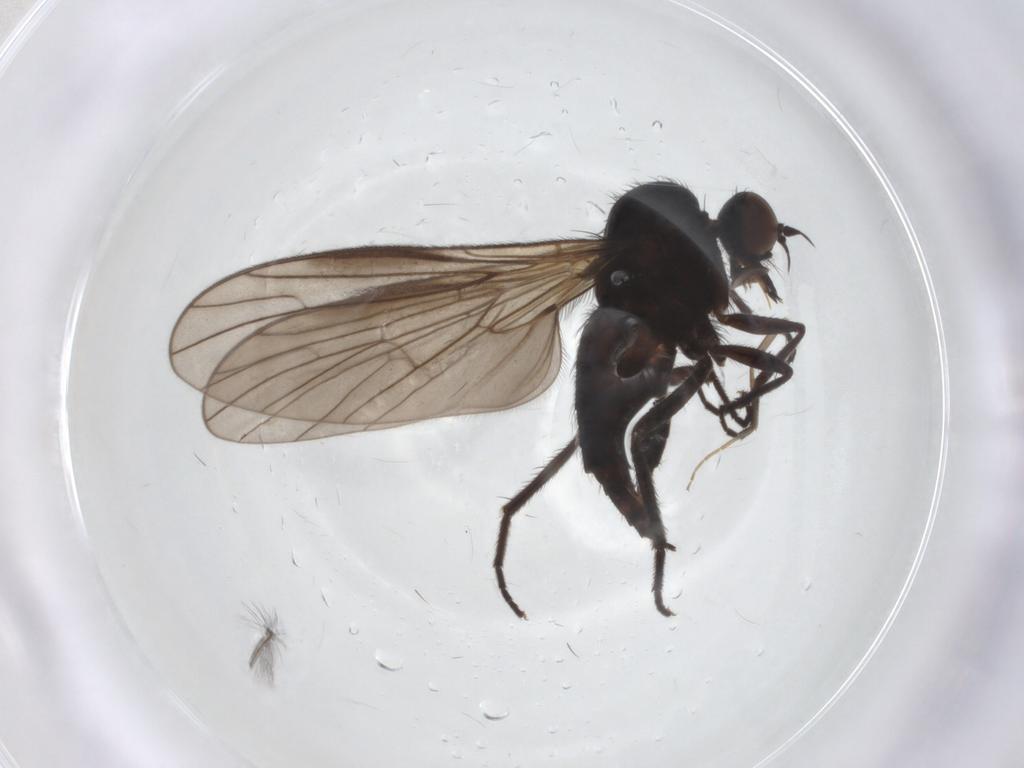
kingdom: Animalia
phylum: Arthropoda
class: Insecta
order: Diptera
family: Empididae
